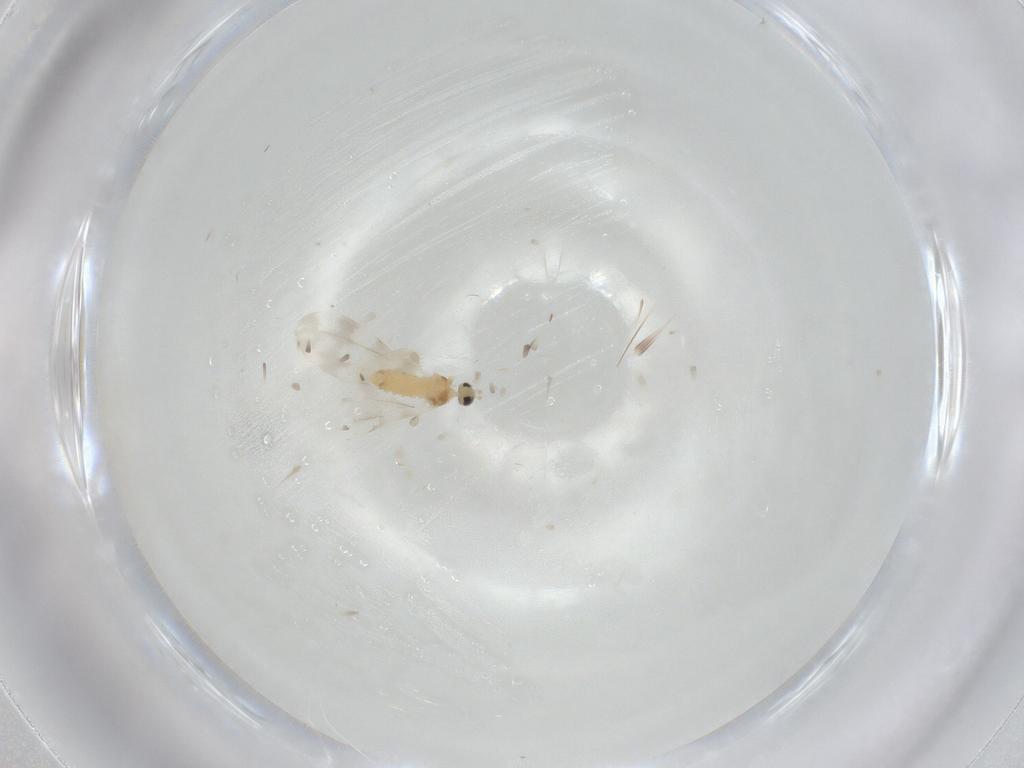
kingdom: Animalia
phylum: Arthropoda
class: Insecta
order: Diptera
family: Cecidomyiidae
